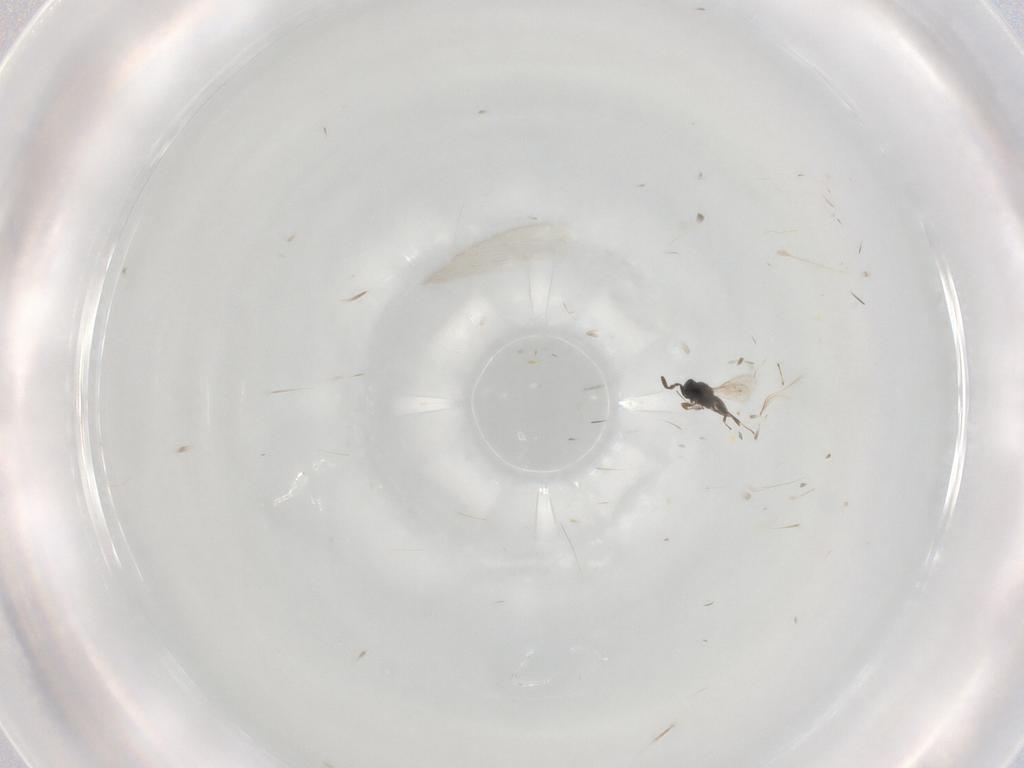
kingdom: Animalia
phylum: Arthropoda
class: Insecta
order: Hymenoptera
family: Scelionidae
